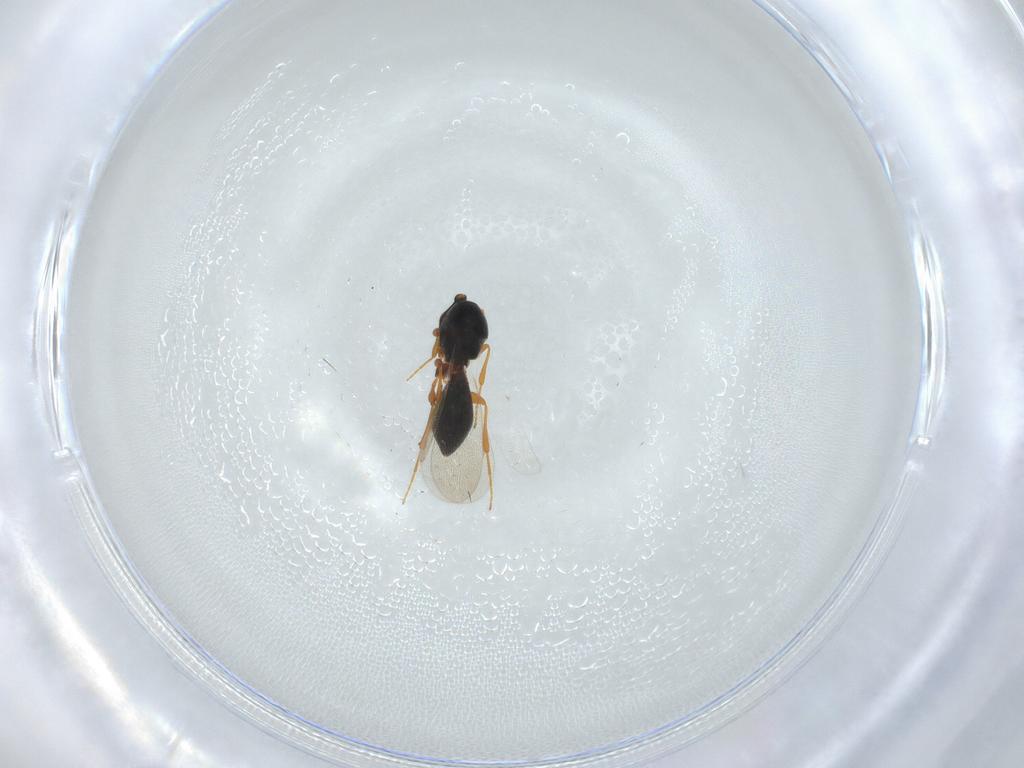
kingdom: Animalia
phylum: Arthropoda
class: Insecta
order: Hymenoptera
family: Platygastridae
